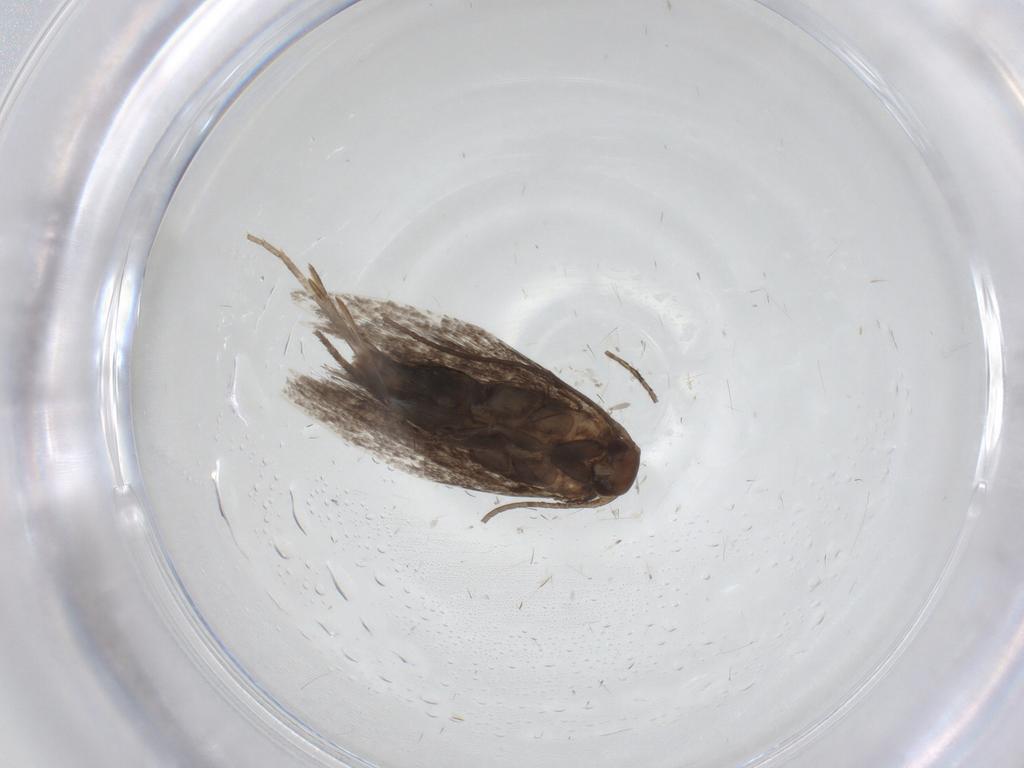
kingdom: Animalia
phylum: Arthropoda
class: Insecta
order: Lepidoptera
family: Elachistidae
